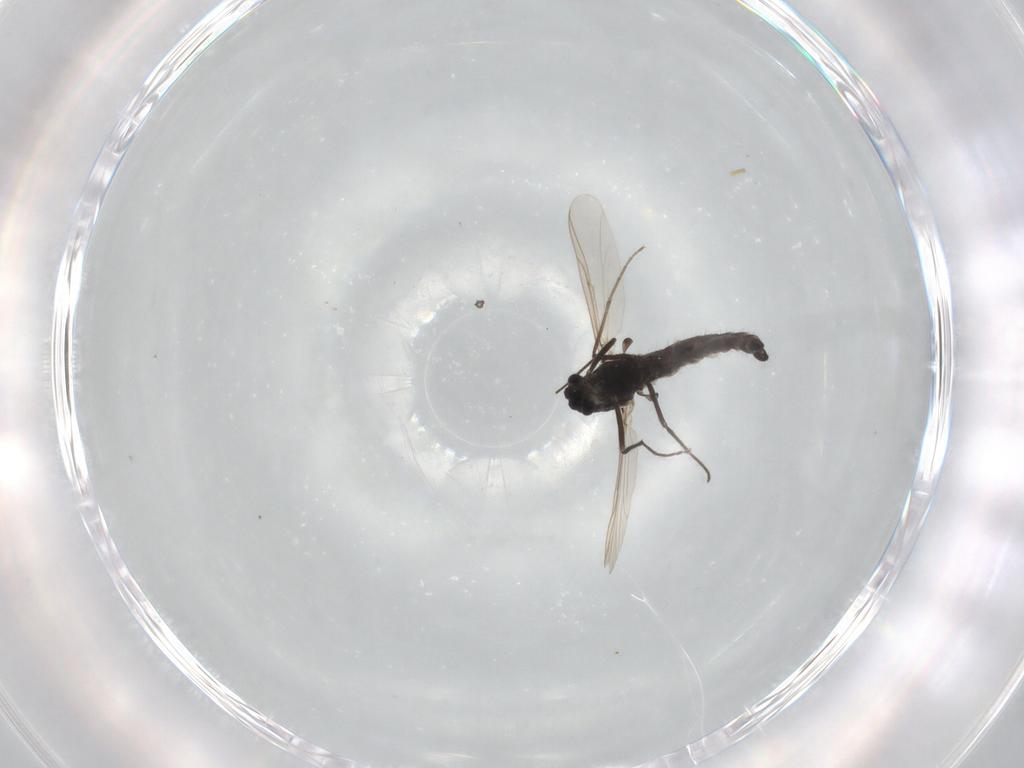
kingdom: Animalia
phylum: Arthropoda
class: Insecta
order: Diptera
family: Chironomidae
